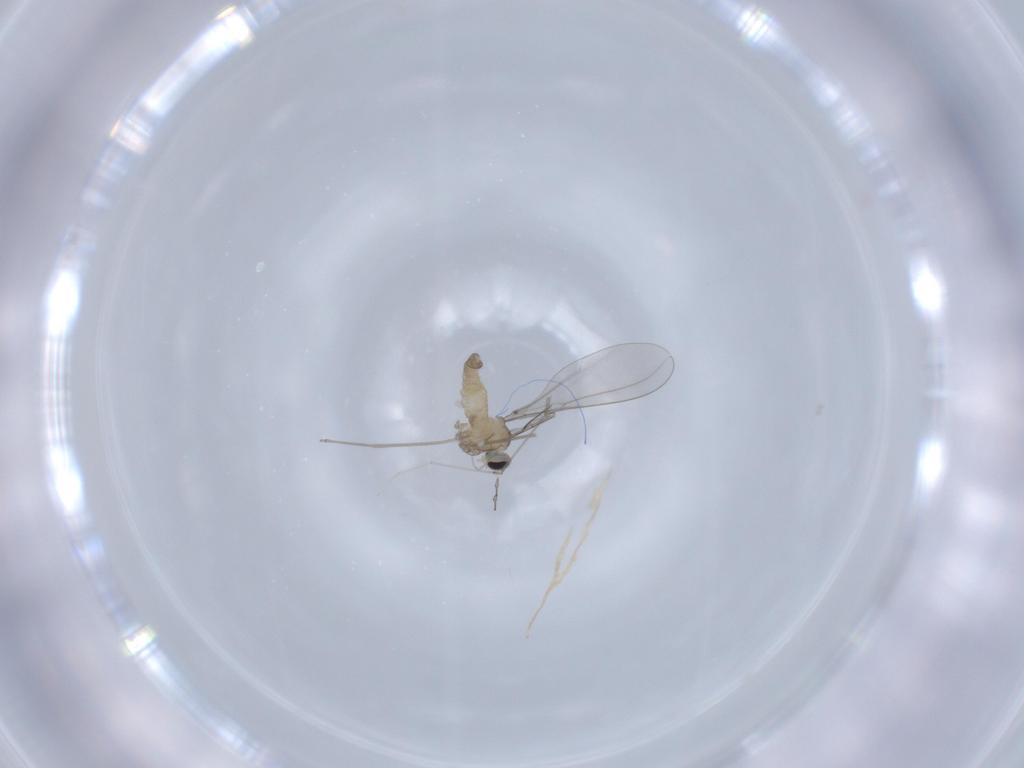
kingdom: Animalia
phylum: Arthropoda
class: Insecta
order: Diptera
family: Cecidomyiidae
